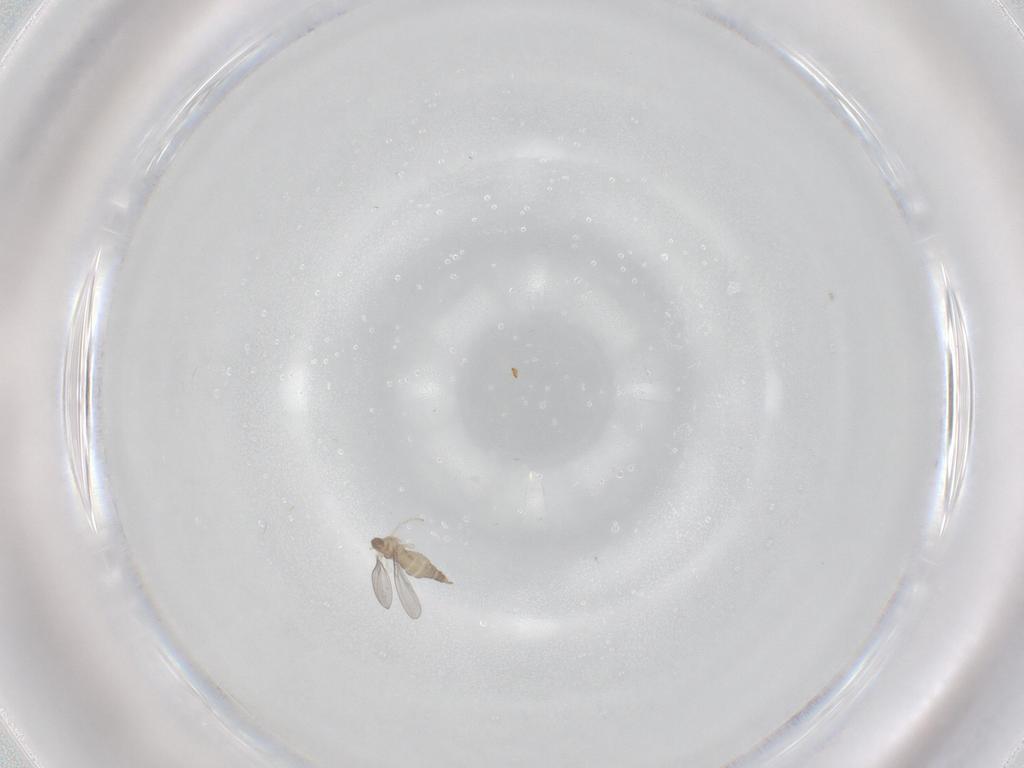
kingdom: Animalia
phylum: Arthropoda
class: Insecta
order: Diptera
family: Cecidomyiidae
